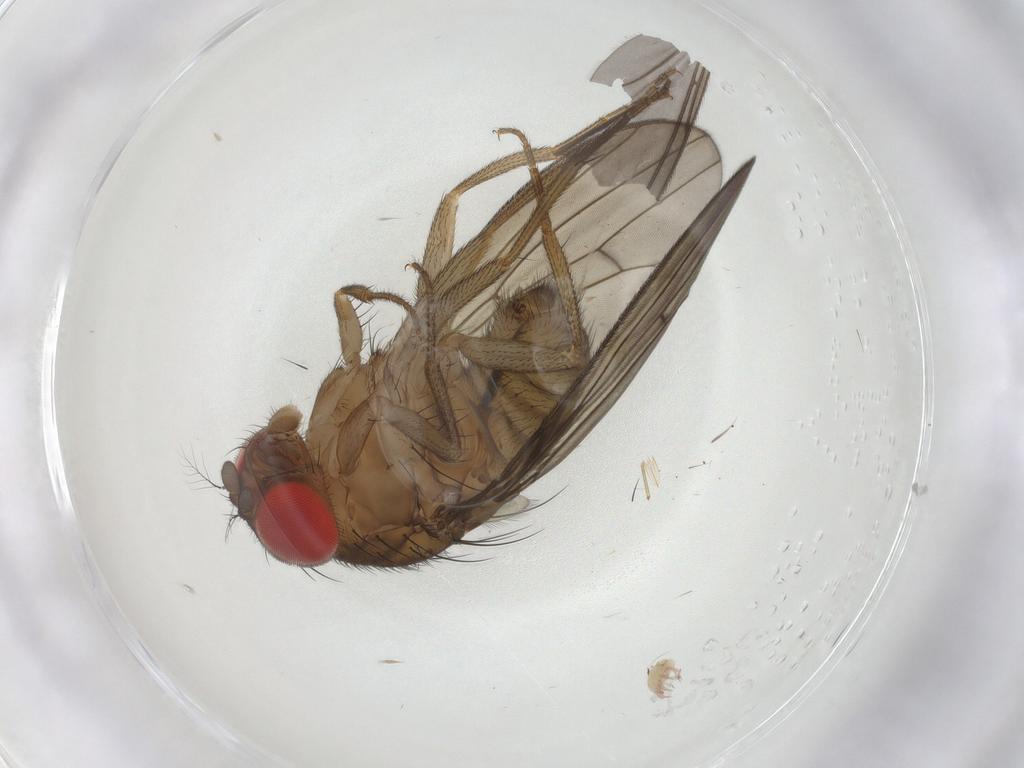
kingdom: Animalia
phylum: Arthropoda
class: Insecta
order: Diptera
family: Drosophilidae
